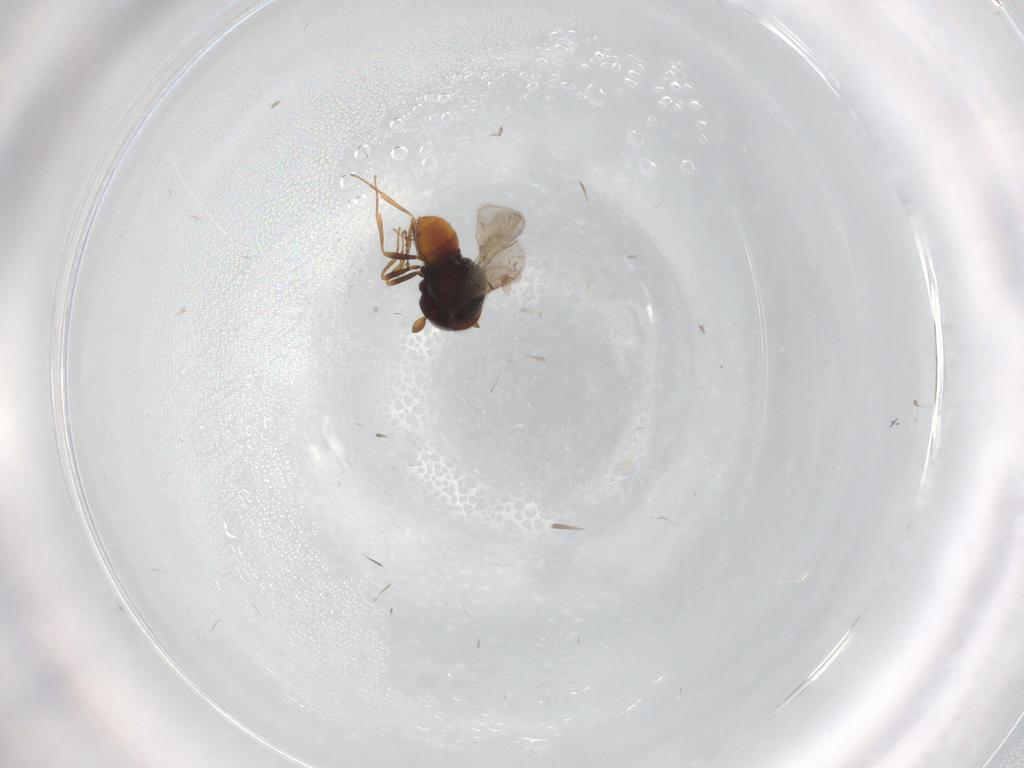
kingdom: Animalia
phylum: Arthropoda
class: Insecta
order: Hymenoptera
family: Scelionidae
